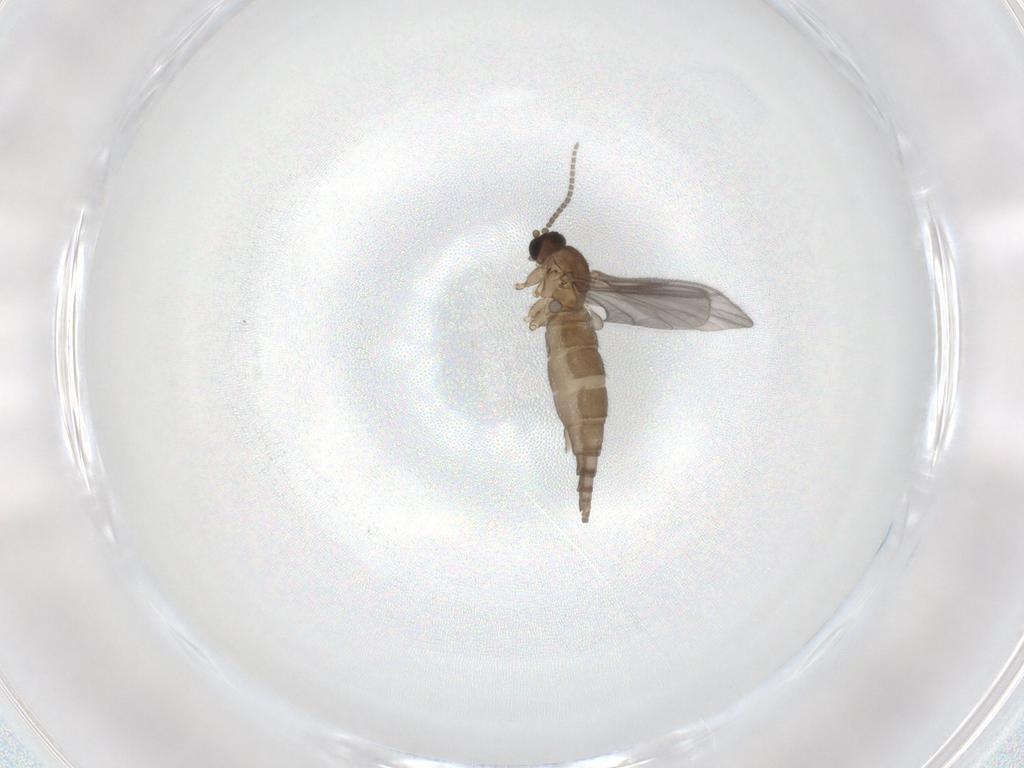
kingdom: Animalia
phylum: Arthropoda
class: Insecta
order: Diptera
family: Sciaridae
